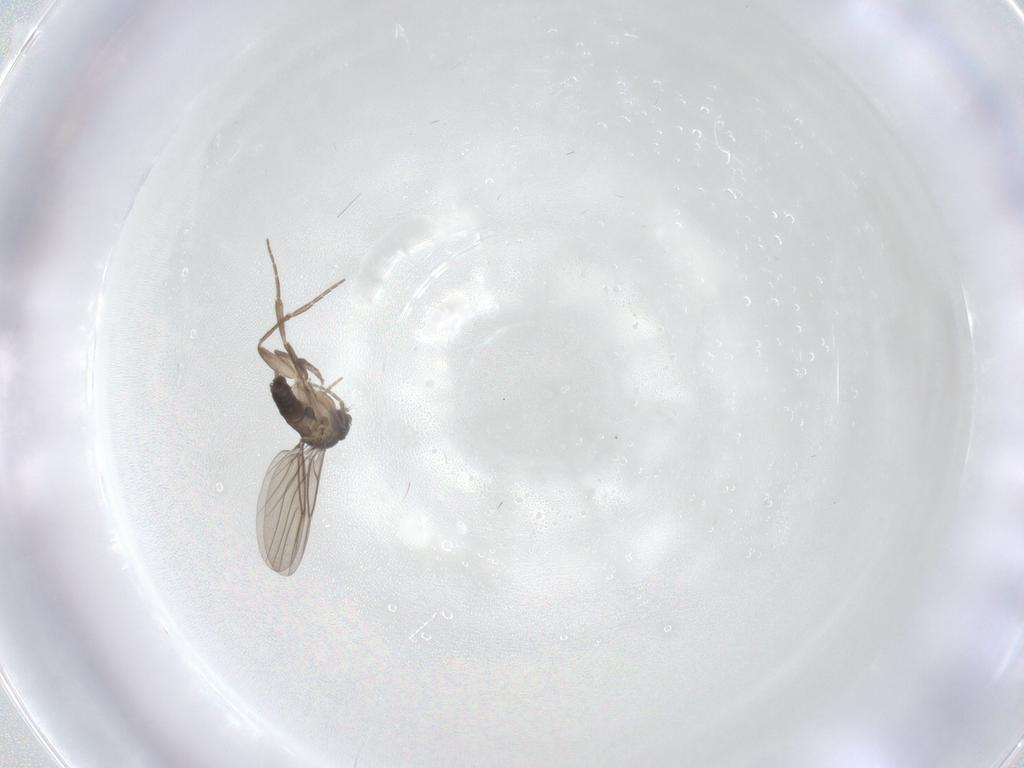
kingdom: Animalia
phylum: Arthropoda
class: Insecta
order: Diptera
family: Chironomidae
